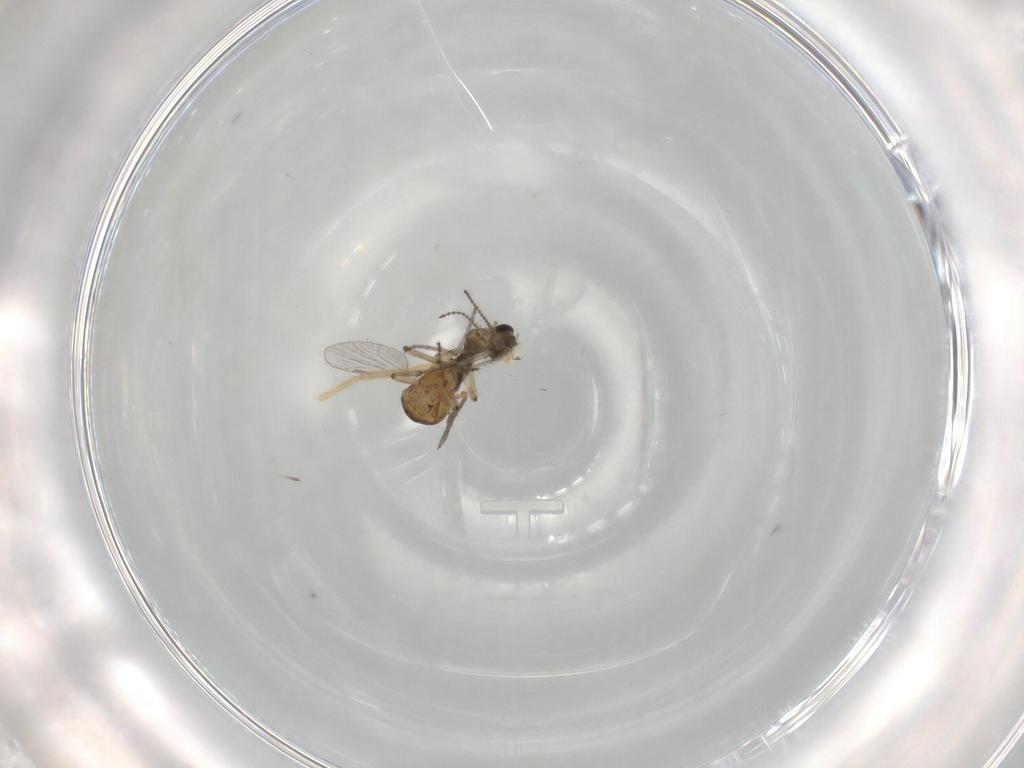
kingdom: Animalia
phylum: Arthropoda
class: Insecta
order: Diptera
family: Ceratopogonidae
